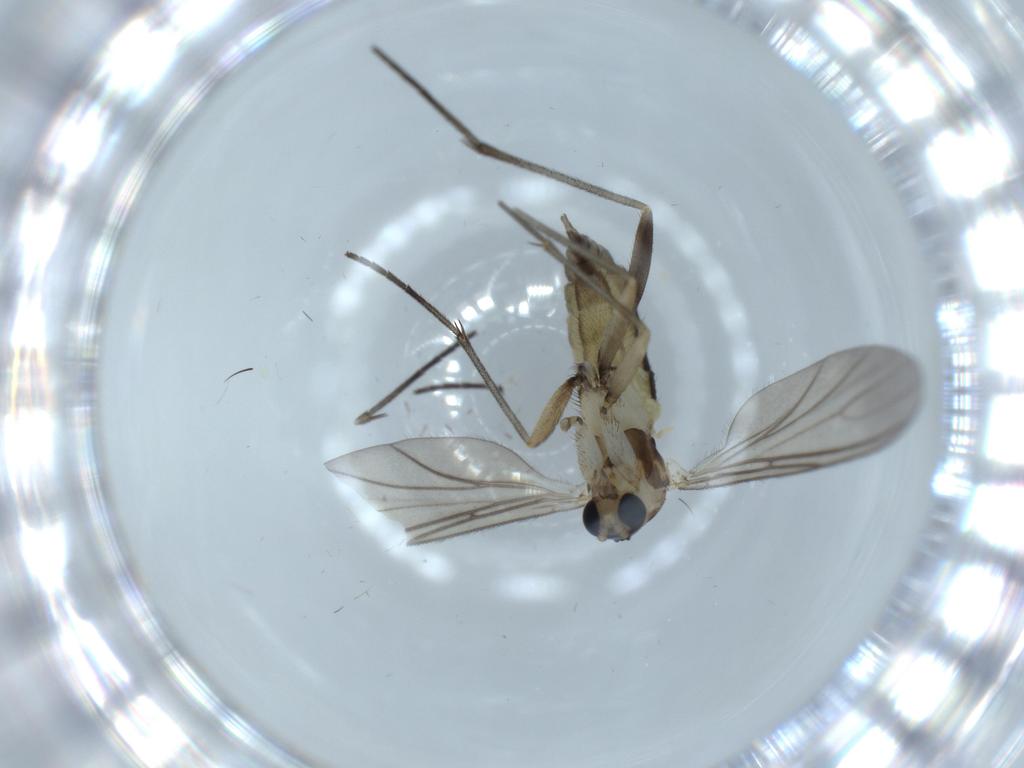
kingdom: Animalia
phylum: Arthropoda
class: Insecta
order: Diptera
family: Sciaridae
